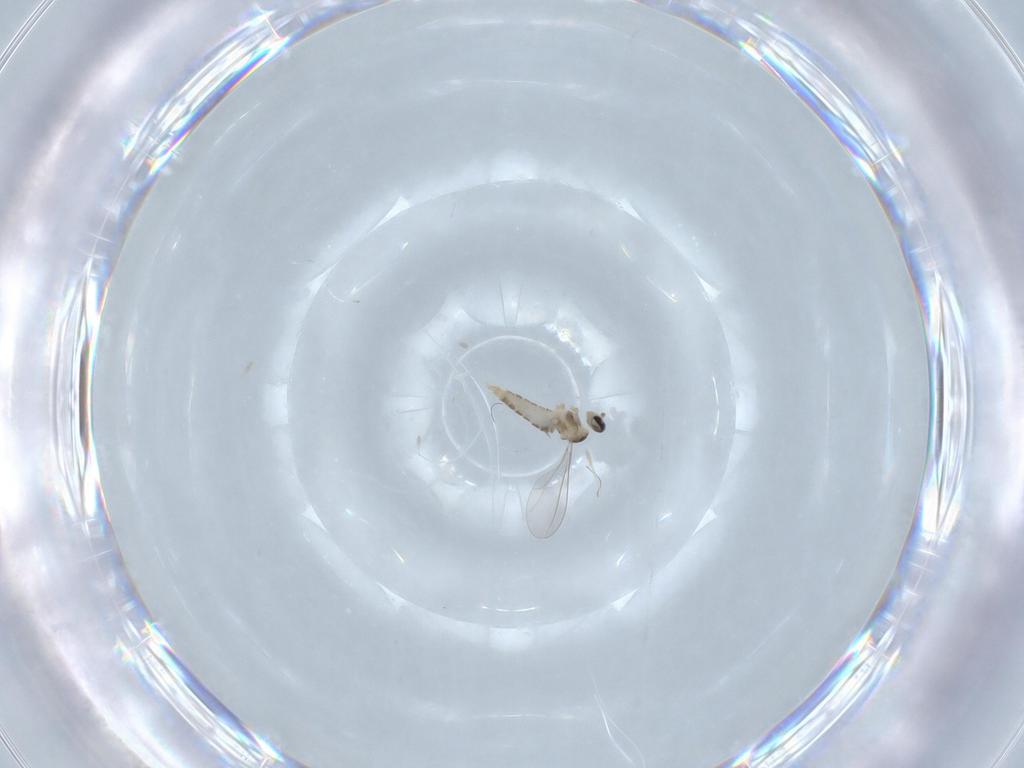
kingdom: Animalia
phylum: Arthropoda
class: Insecta
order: Diptera
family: Cecidomyiidae
